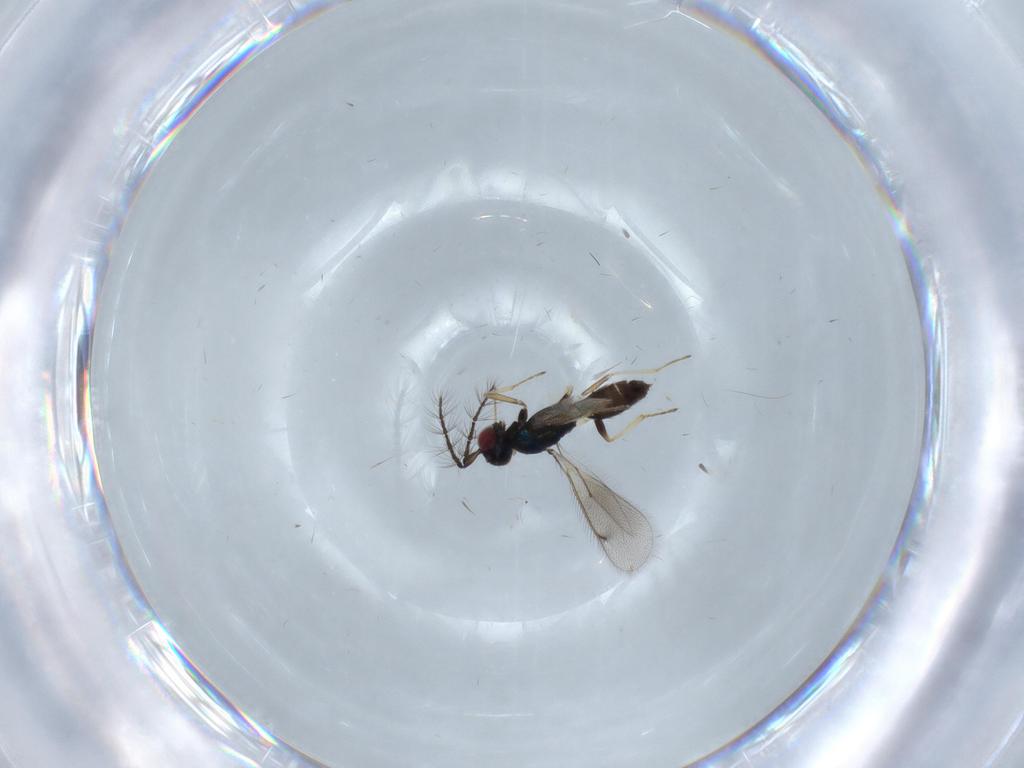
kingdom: Animalia
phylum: Arthropoda
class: Insecta
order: Hymenoptera
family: Eulophidae
